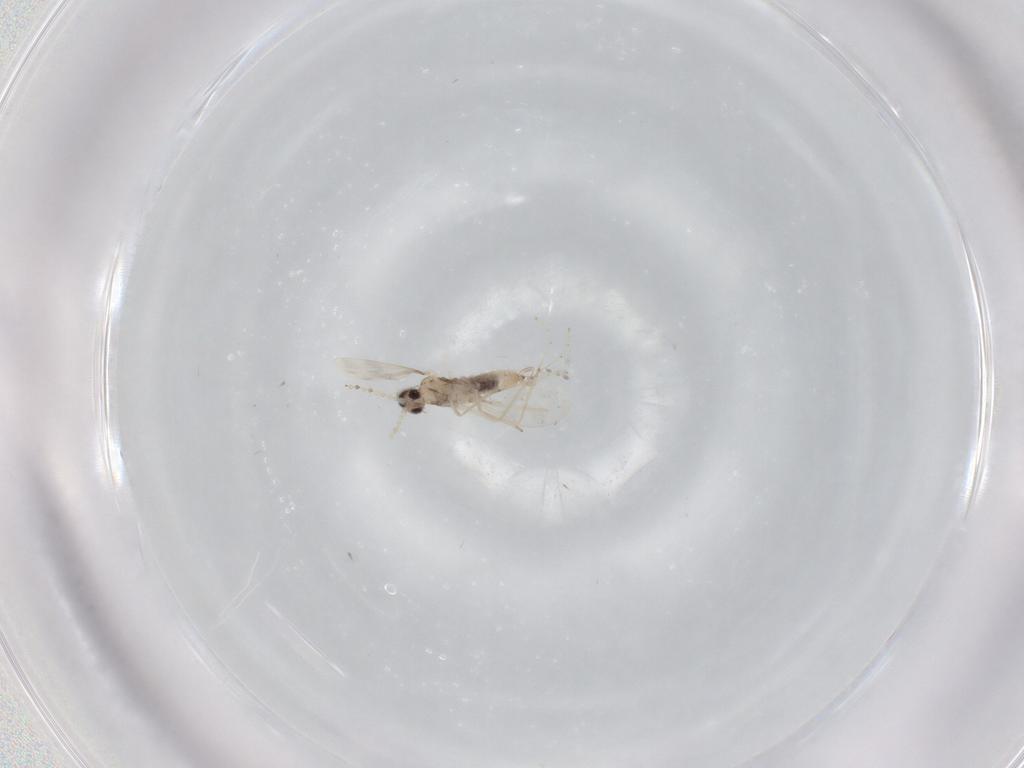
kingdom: Animalia
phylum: Arthropoda
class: Insecta
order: Diptera
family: Cecidomyiidae
